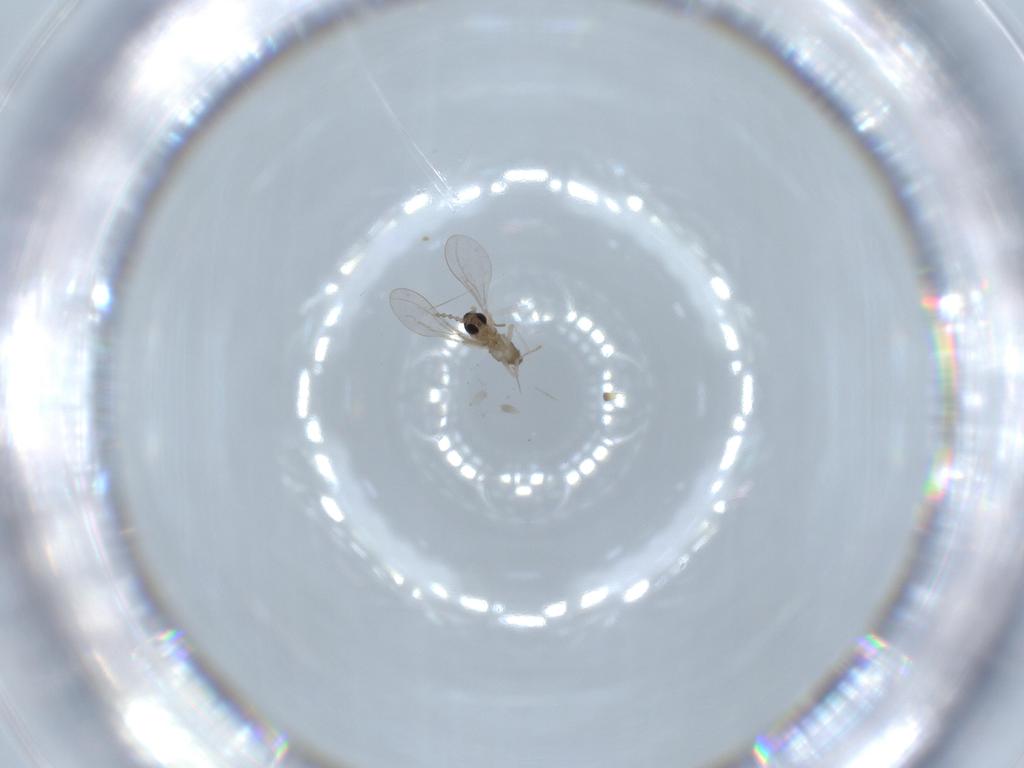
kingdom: Animalia
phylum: Arthropoda
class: Insecta
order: Diptera
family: Cecidomyiidae
